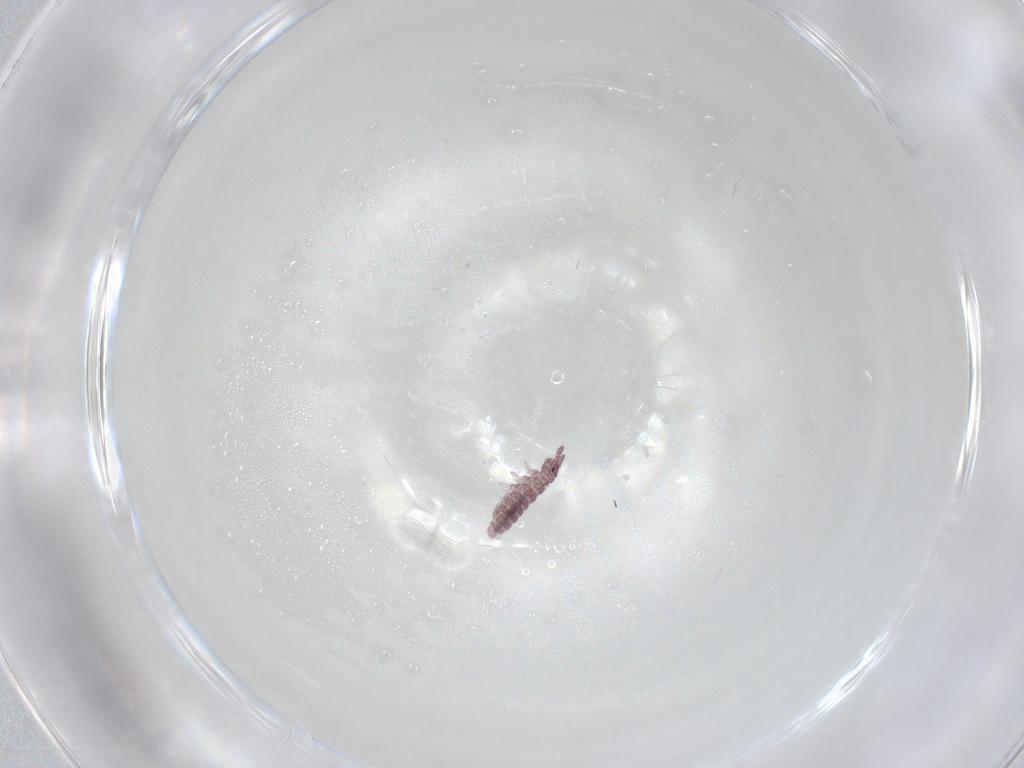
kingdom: Animalia
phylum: Arthropoda
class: Collembola
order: Poduromorpha
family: Hypogastruridae
